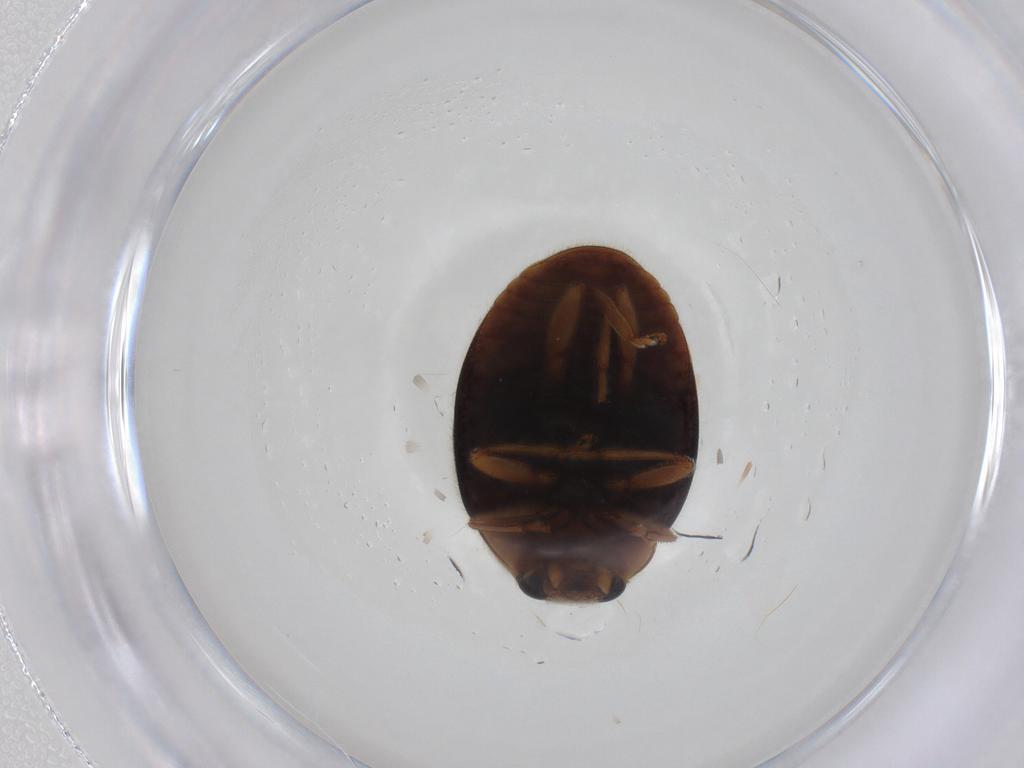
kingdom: Animalia
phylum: Arthropoda
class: Insecta
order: Coleoptera
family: Coccinellidae
